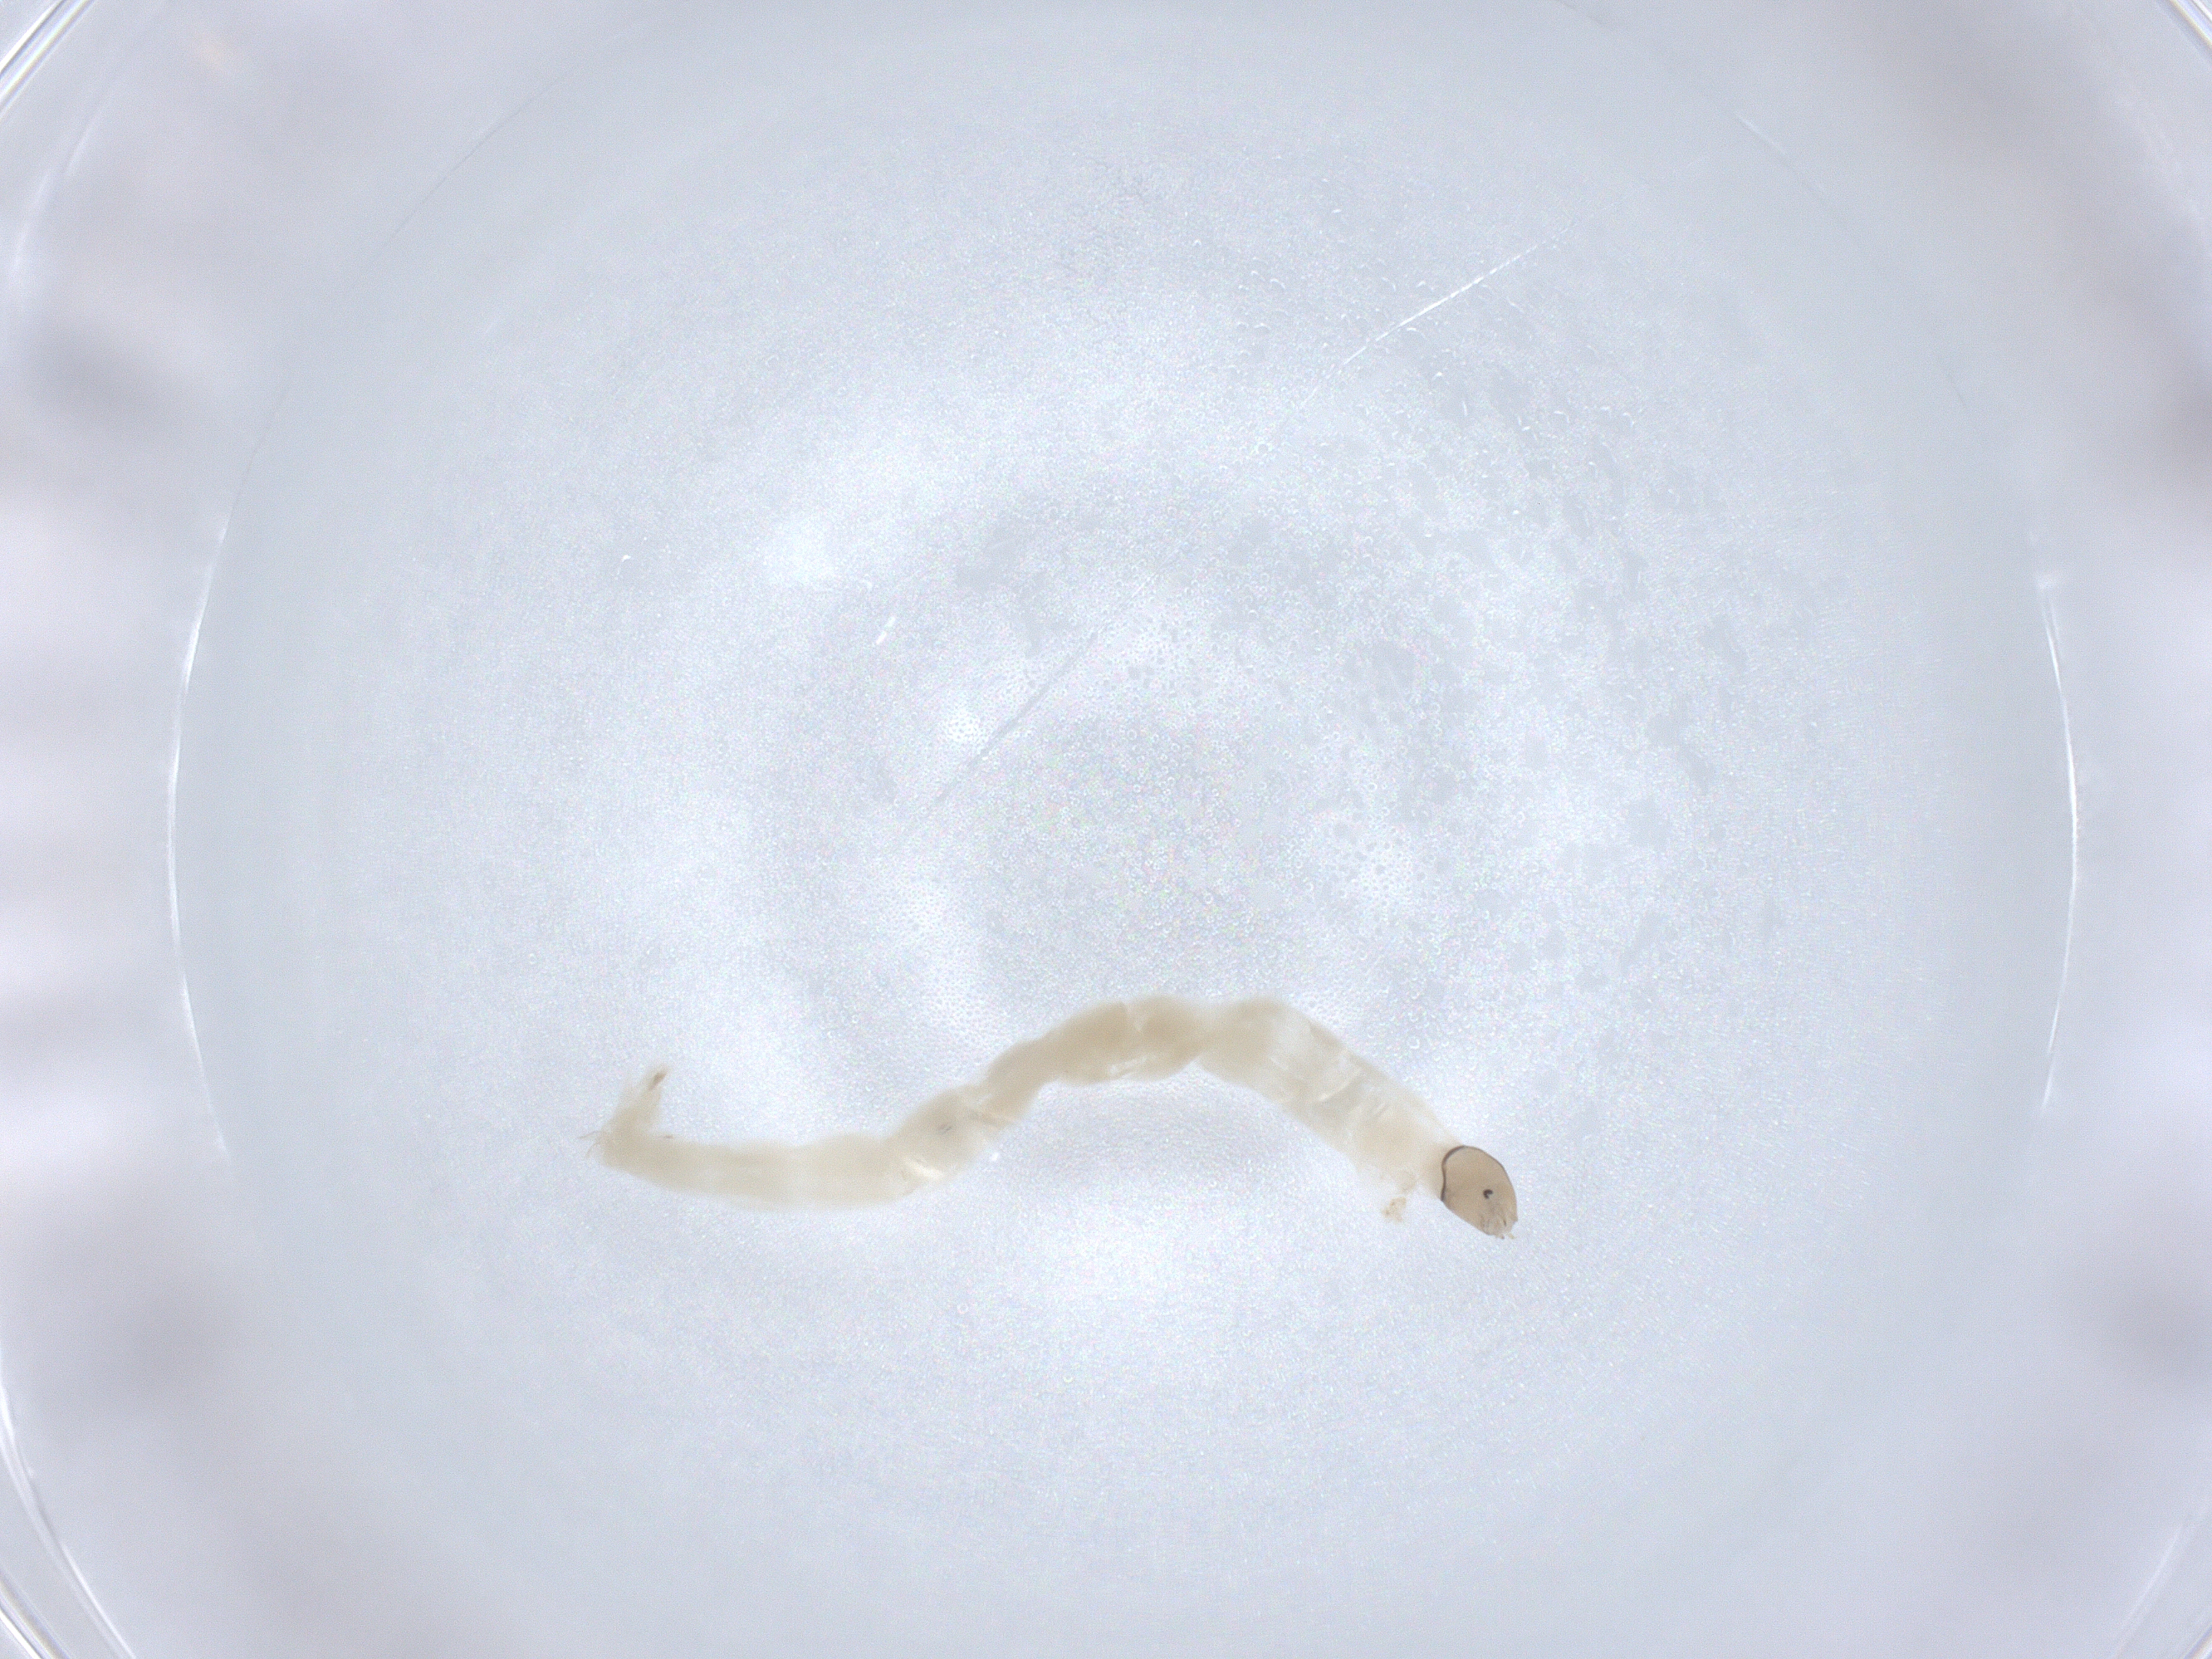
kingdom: Animalia
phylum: Arthropoda
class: Insecta
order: Diptera
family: Chironomidae
